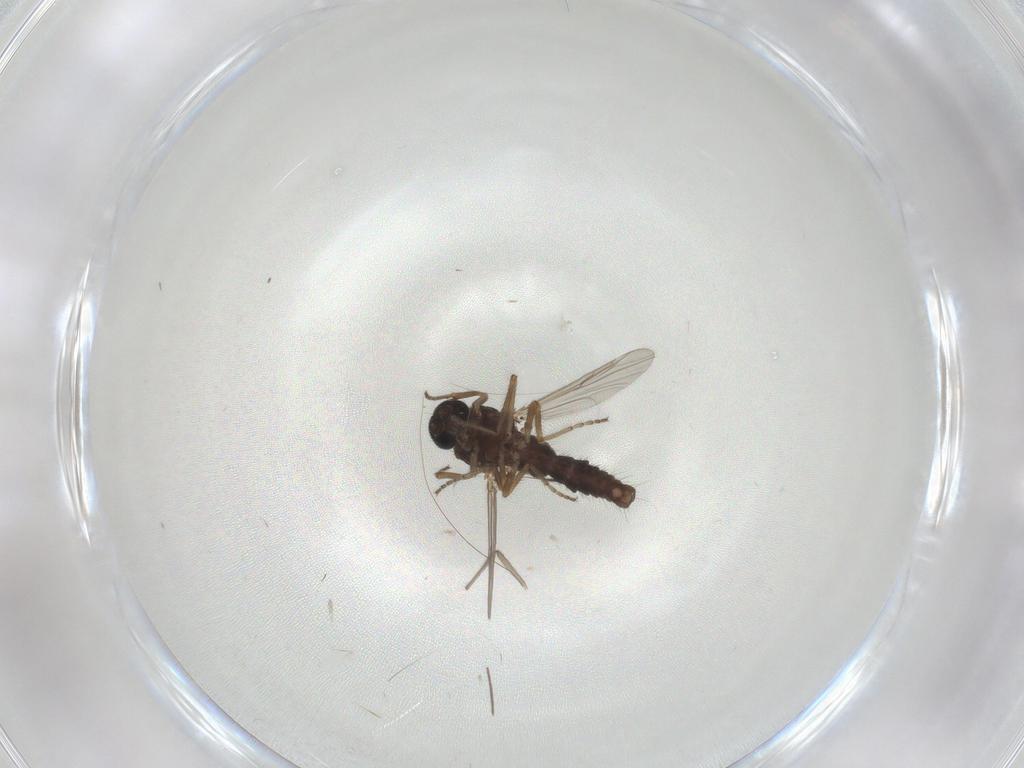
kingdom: Animalia
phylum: Arthropoda
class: Insecta
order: Diptera
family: Ceratopogonidae
